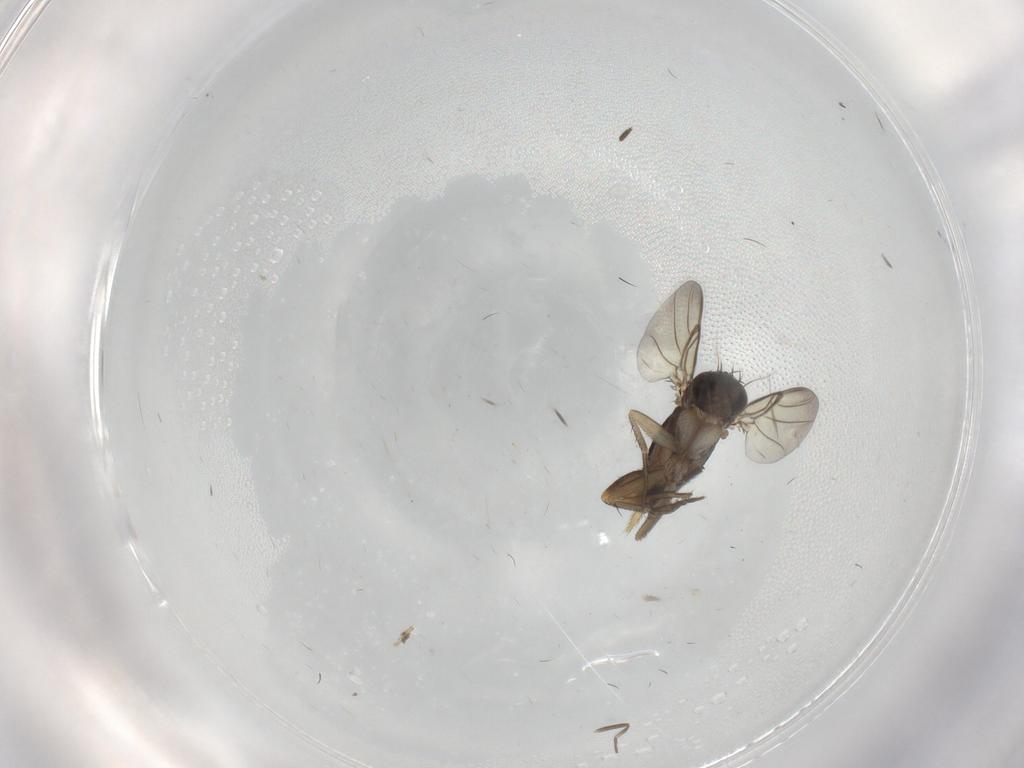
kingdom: Animalia
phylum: Arthropoda
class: Insecta
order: Diptera
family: Phoridae
